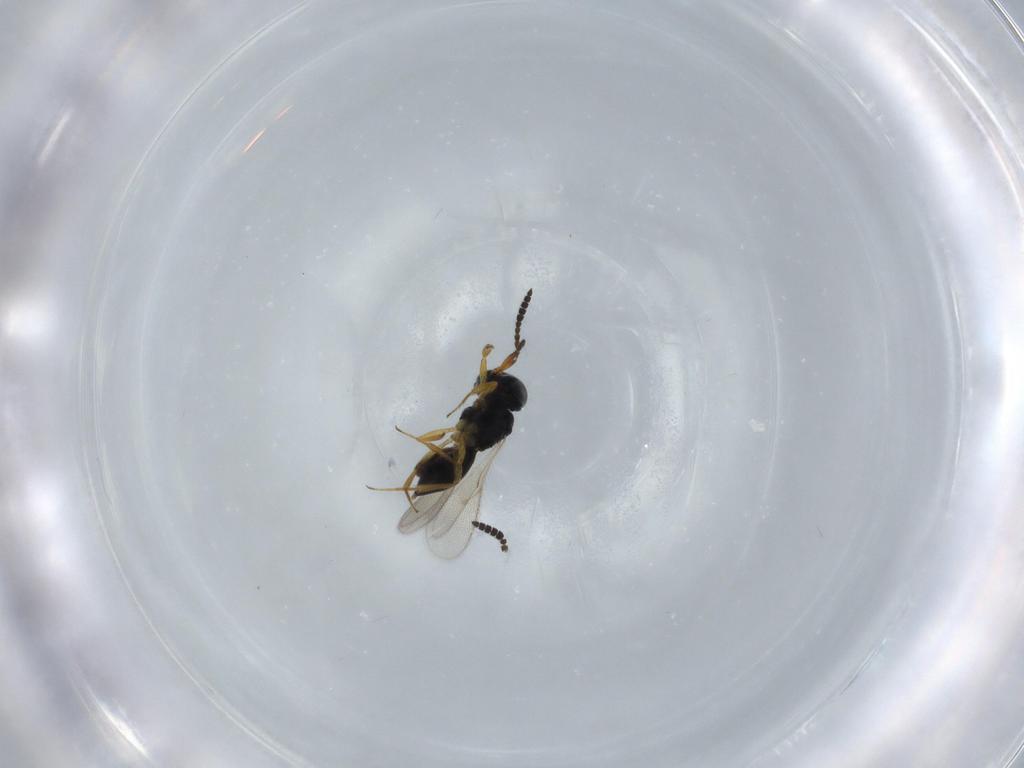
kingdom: Animalia
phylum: Arthropoda
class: Insecta
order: Hymenoptera
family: Scelionidae
